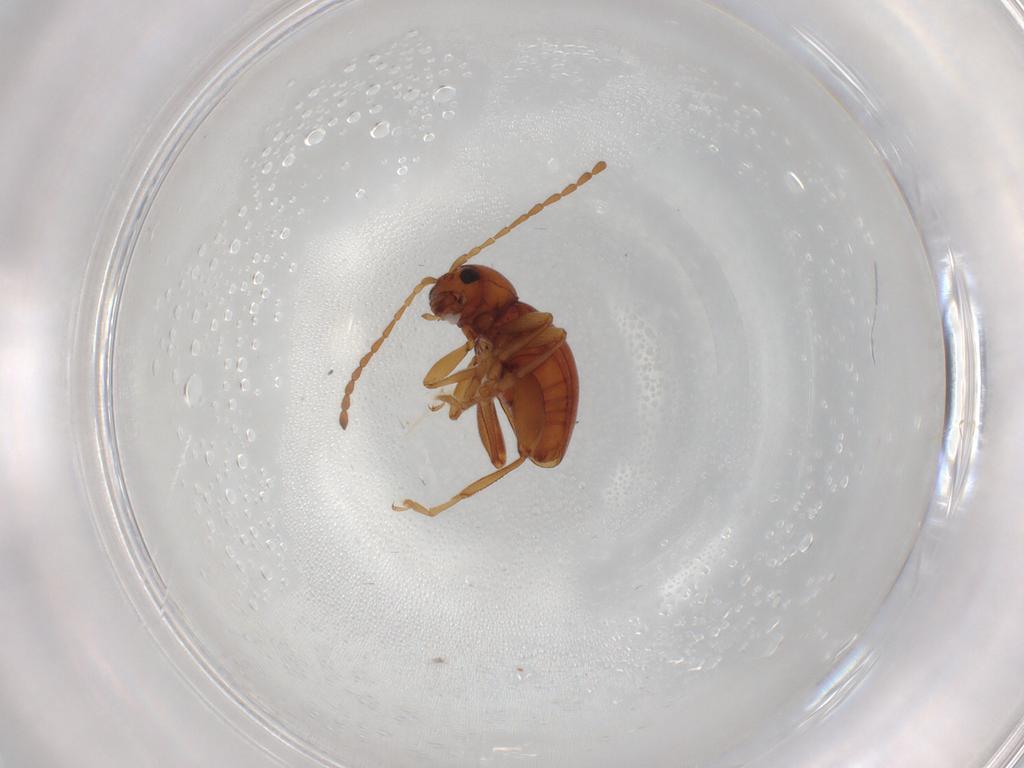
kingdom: Animalia
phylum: Arthropoda
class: Insecta
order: Coleoptera
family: Chrysomelidae
